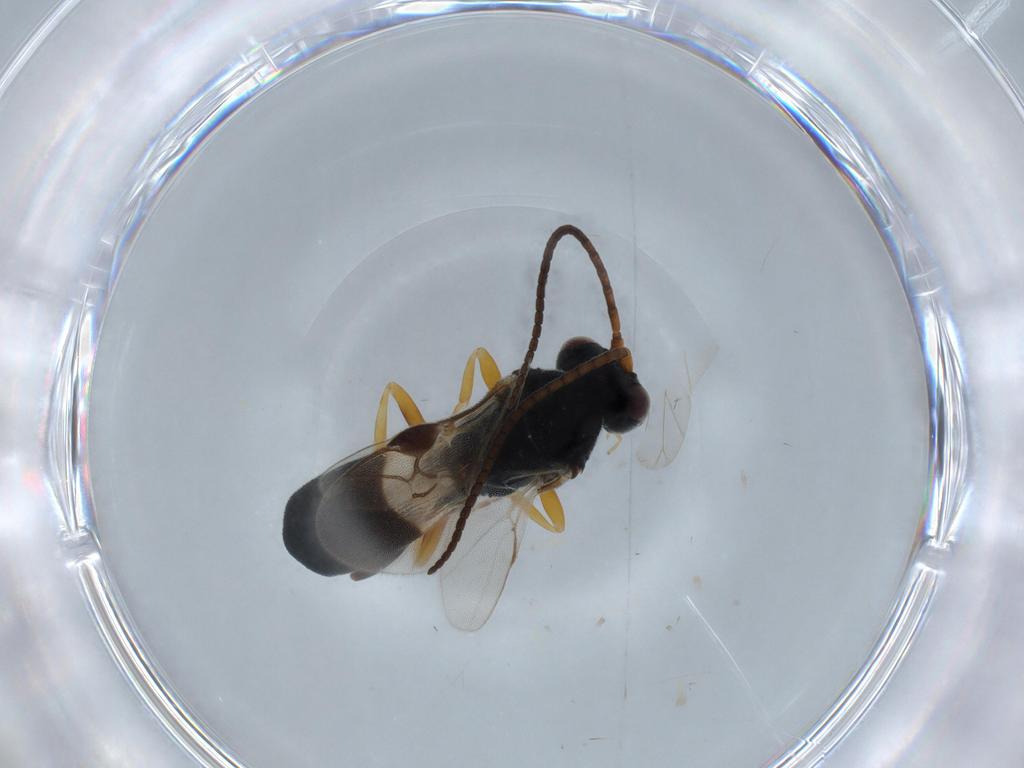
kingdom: Animalia
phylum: Arthropoda
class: Insecta
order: Hymenoptera
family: Braconidae
